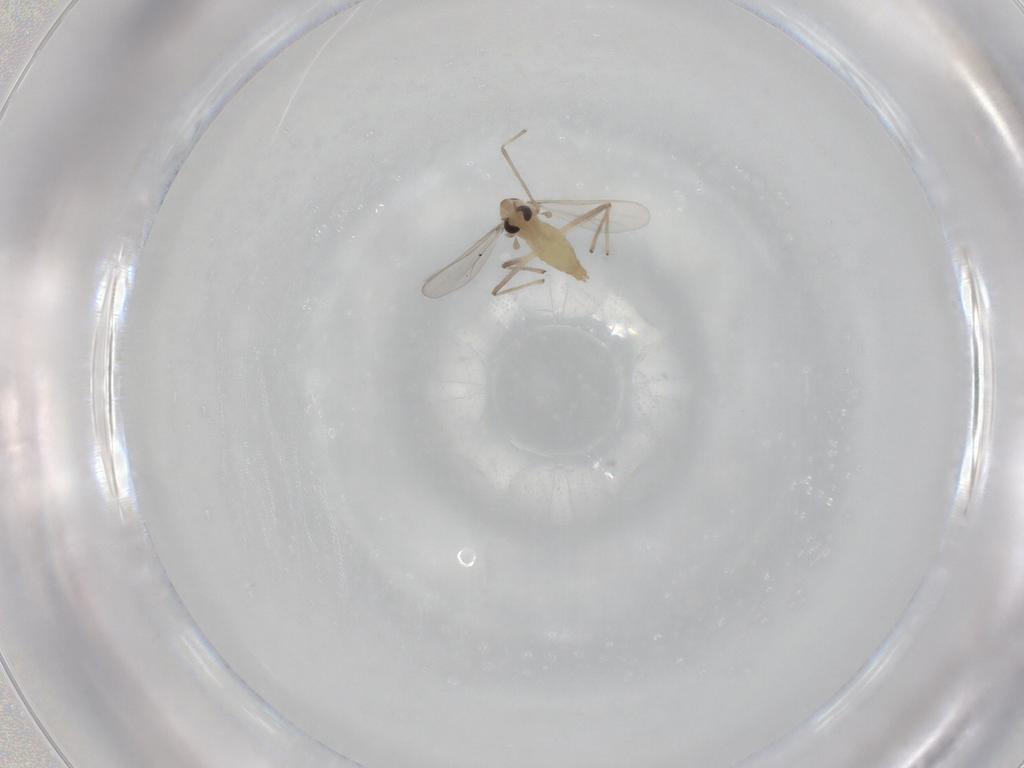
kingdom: Animalia
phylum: Arthropoda
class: Insecta
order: Diptera
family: Chironomidae
